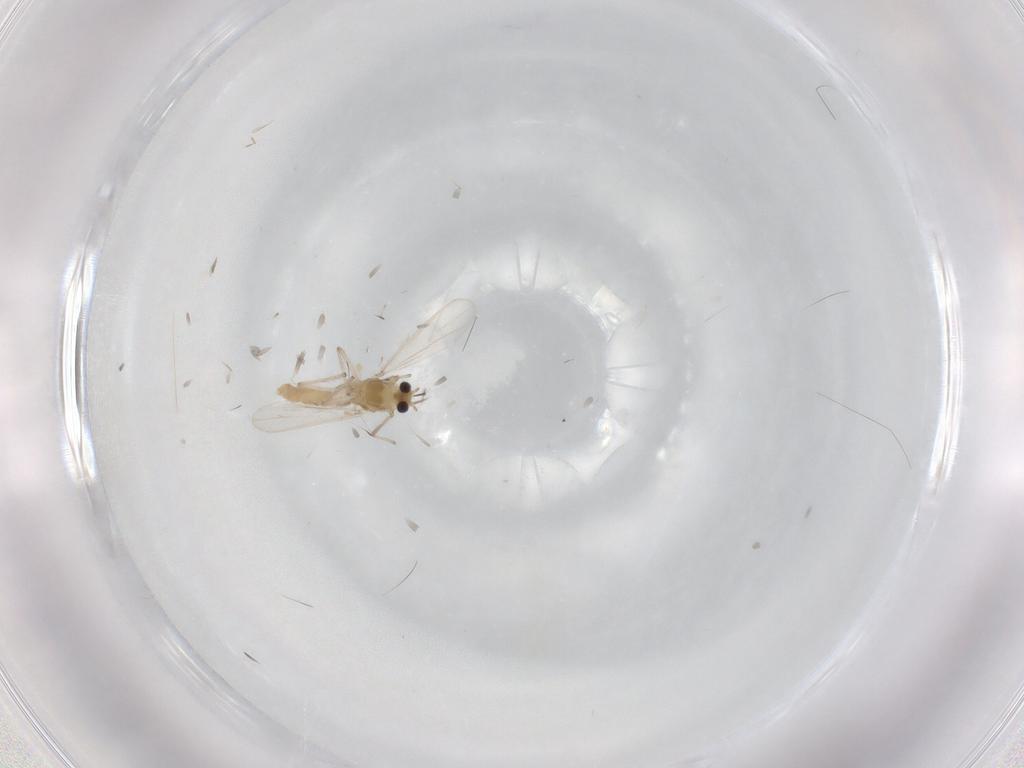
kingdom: Animalia
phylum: Arthropoda
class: Insecta
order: Diptera
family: Chironomidae
